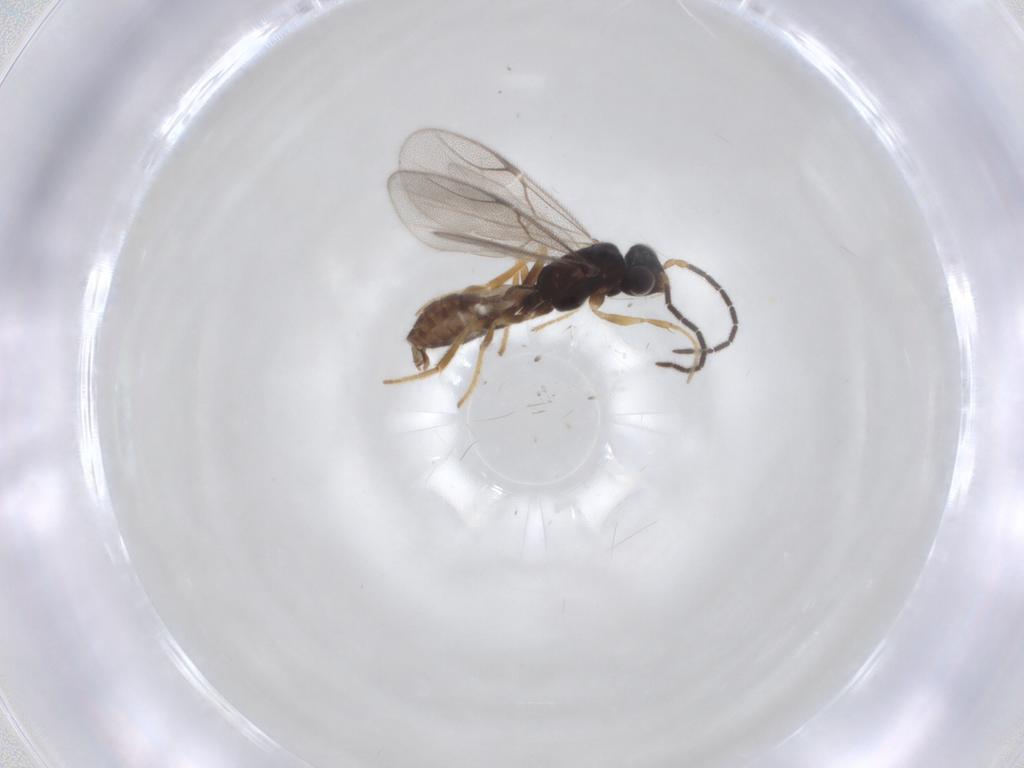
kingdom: Animalia
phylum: Arthropoda
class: Insecta
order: Hymenoptera
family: Dryinidae
